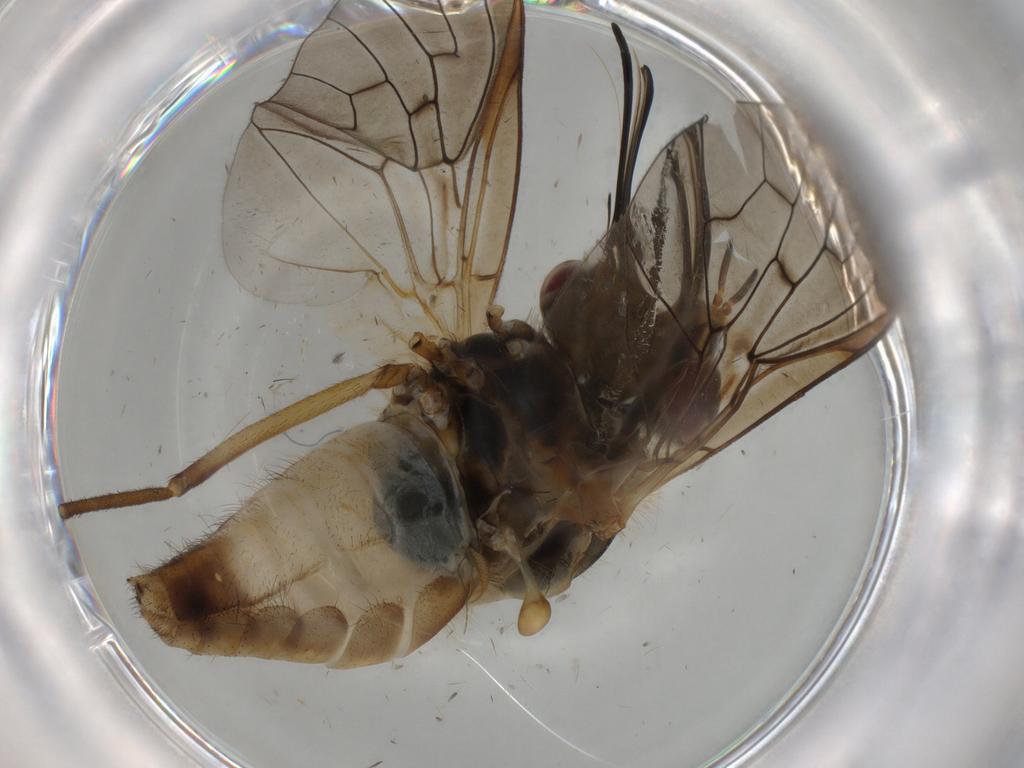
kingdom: Animalia
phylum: Arthropoda
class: Insecta
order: Diptera
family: Bombyliidae
